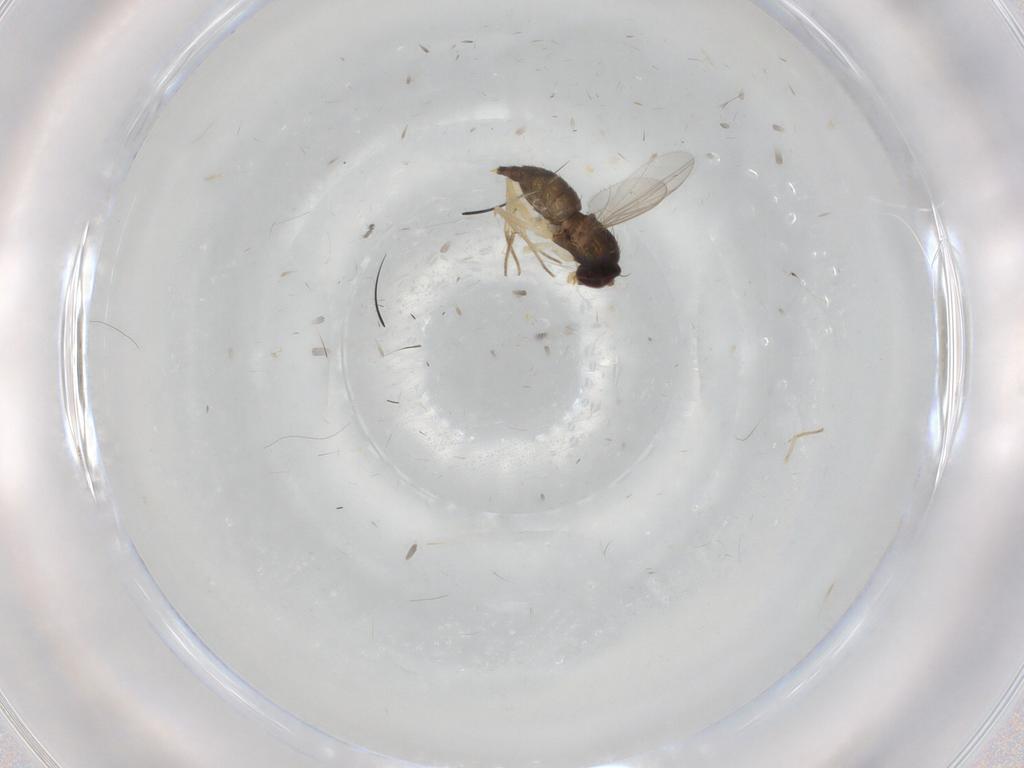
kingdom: Animalia
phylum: Arthropoda
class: Insecta
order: Diptera
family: Dolichopodidae
